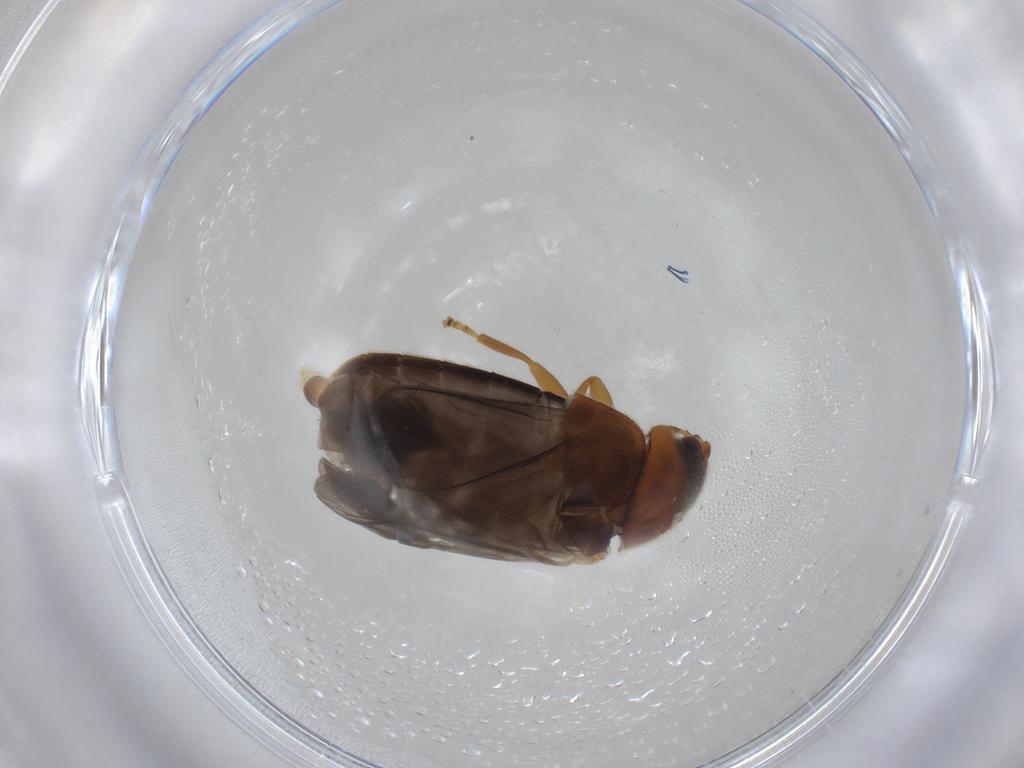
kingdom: Animalia
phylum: Arthropoda
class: Insecta
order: Coleoptera
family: Scirtidae
